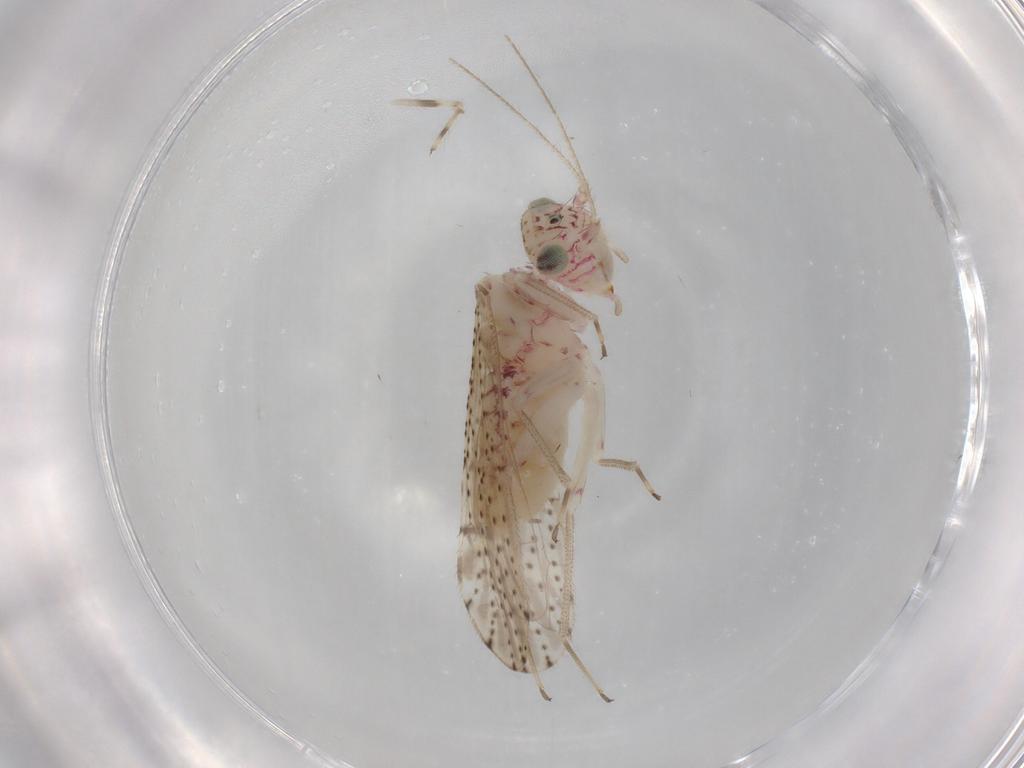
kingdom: Animalia
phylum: Arthropoda
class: Insecta
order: Psocodea
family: Philotarsidae
